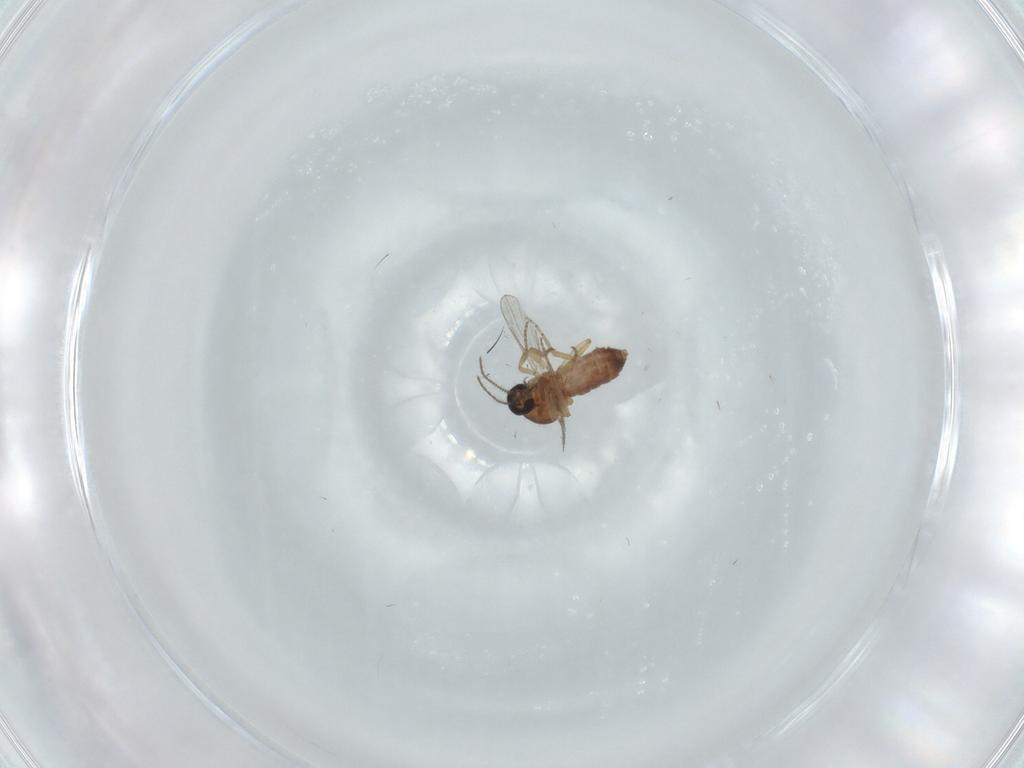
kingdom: Animalia
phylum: Arthropoda
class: Insecta
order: Diptera
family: Ceratopogonidae
